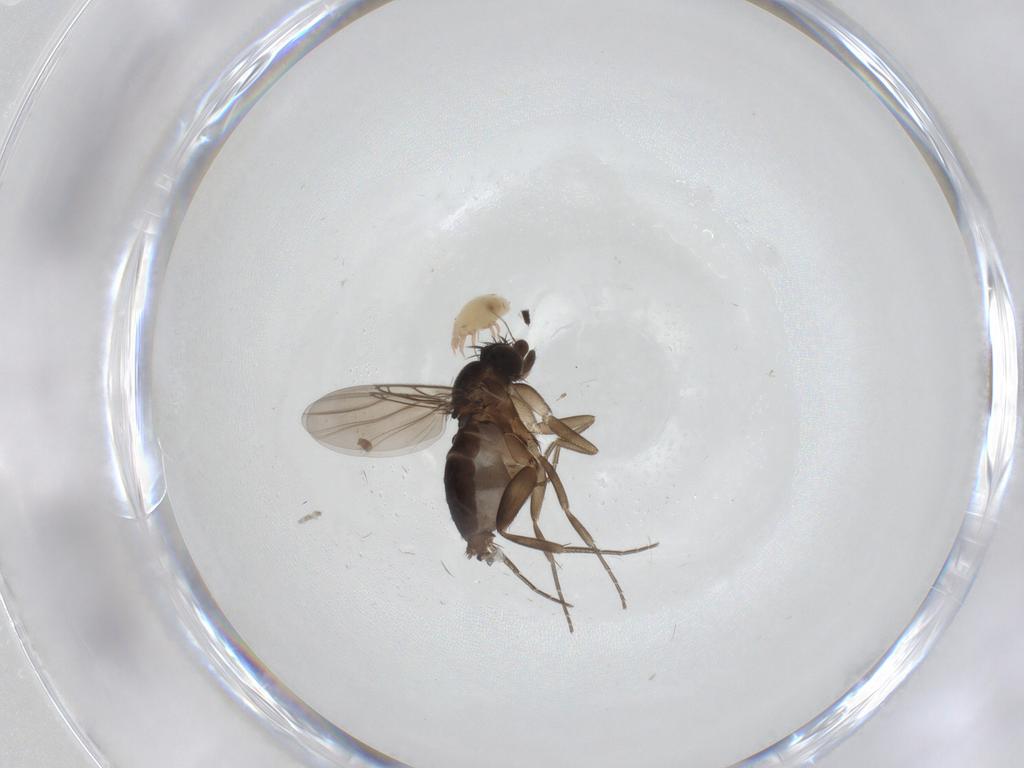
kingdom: Animalia
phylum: Arthropoda
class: Insecta
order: Diptera
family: Phoridae
